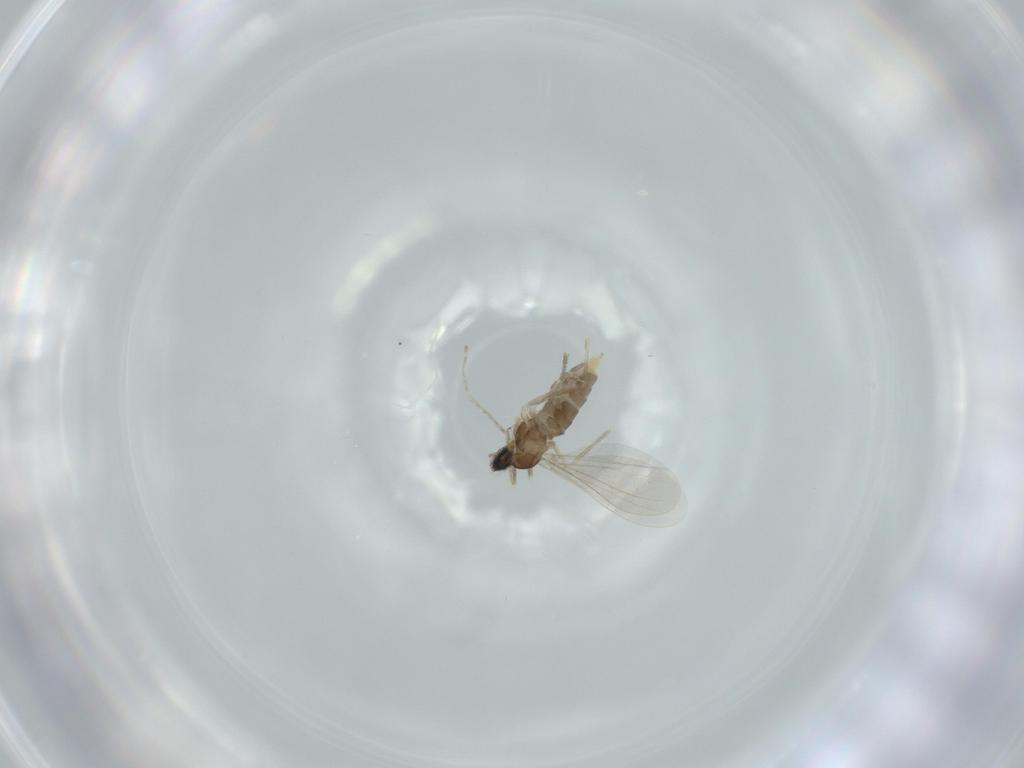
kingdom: Animalia
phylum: Arthropoda
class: Insecta
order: Diptera
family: Cecidomyiidae
